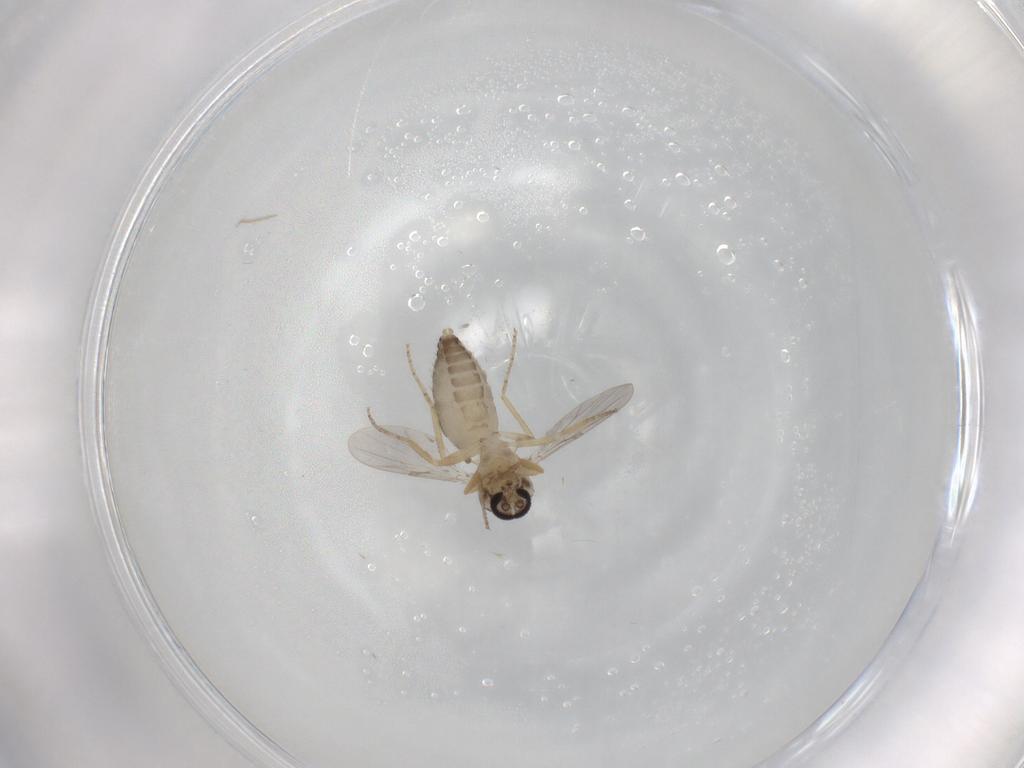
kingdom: Animalia
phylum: Arthropoda
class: Insecta
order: Diptera
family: Ceratopogonidae
